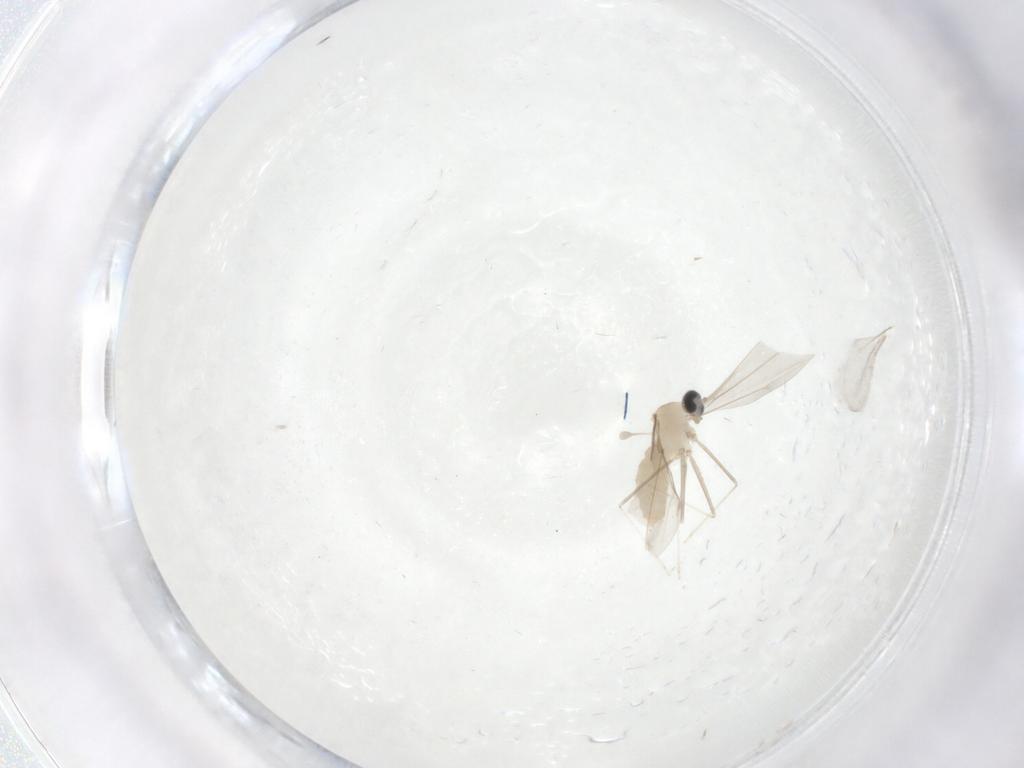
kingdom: Animalia
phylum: Arthropoda
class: Insecta
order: Diptera
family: Cecidomyiidae
